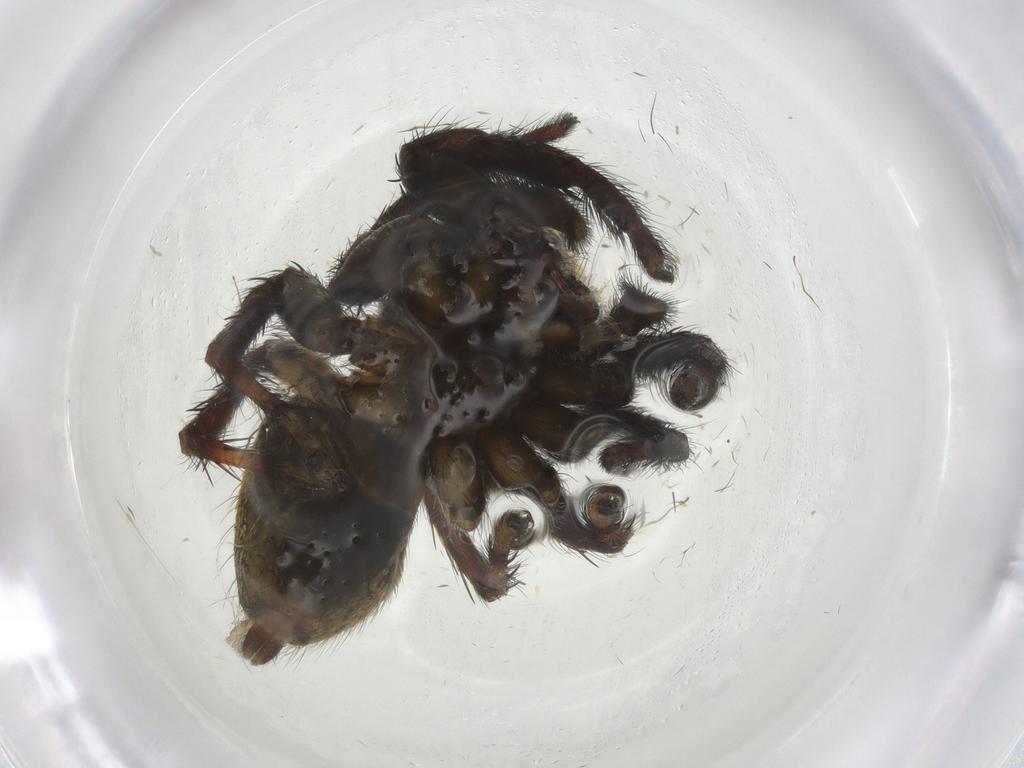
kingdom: Animalia
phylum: Arthropoda
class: Arachnida
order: Araneae
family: Salticidae
